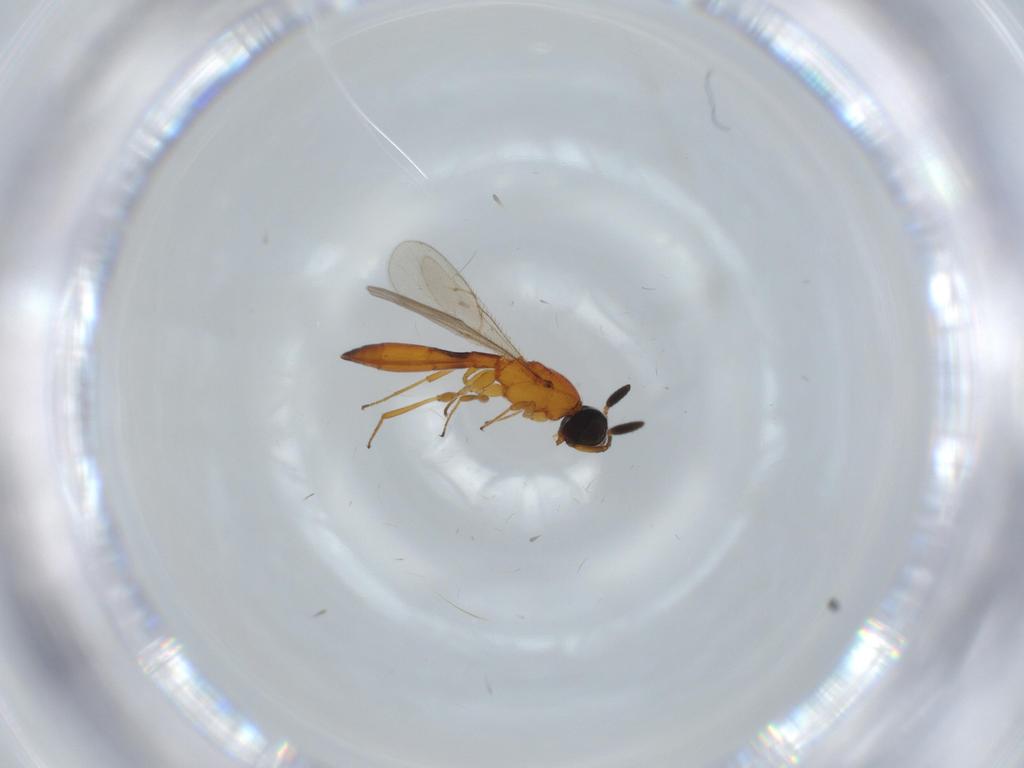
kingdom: Animalia
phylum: Arthropoda
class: Insecta
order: Hymenoptera
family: Scelionidae
